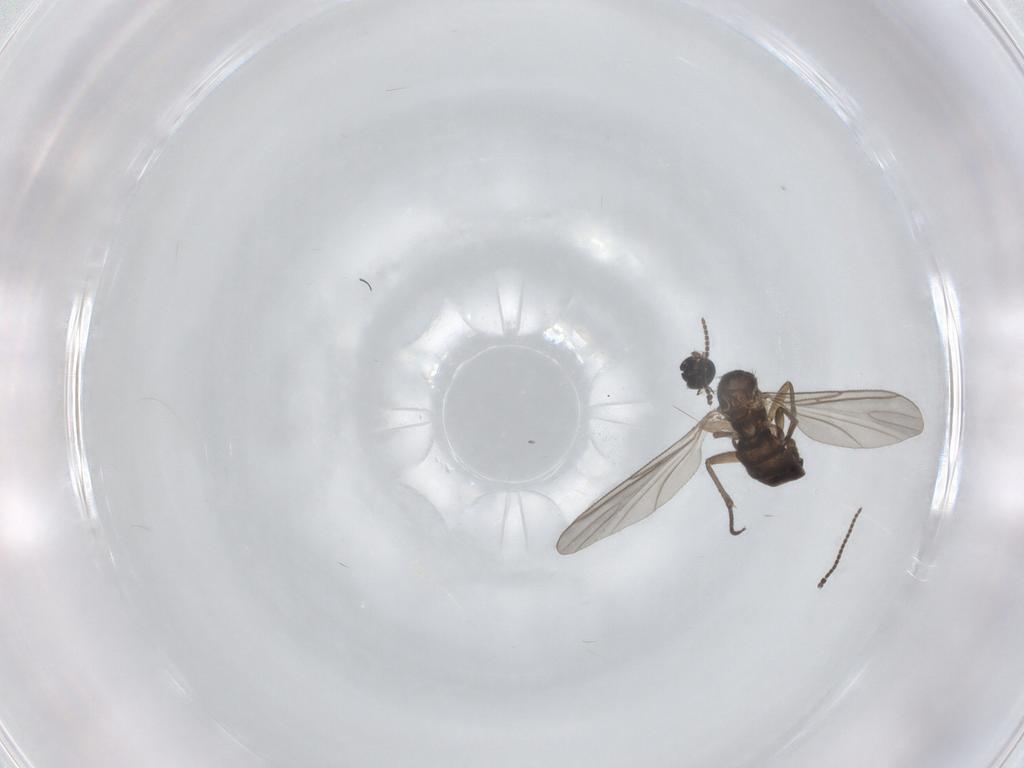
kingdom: Animalia
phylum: Arthropoda
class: Insecta
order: Diptera
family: Sciaridae
